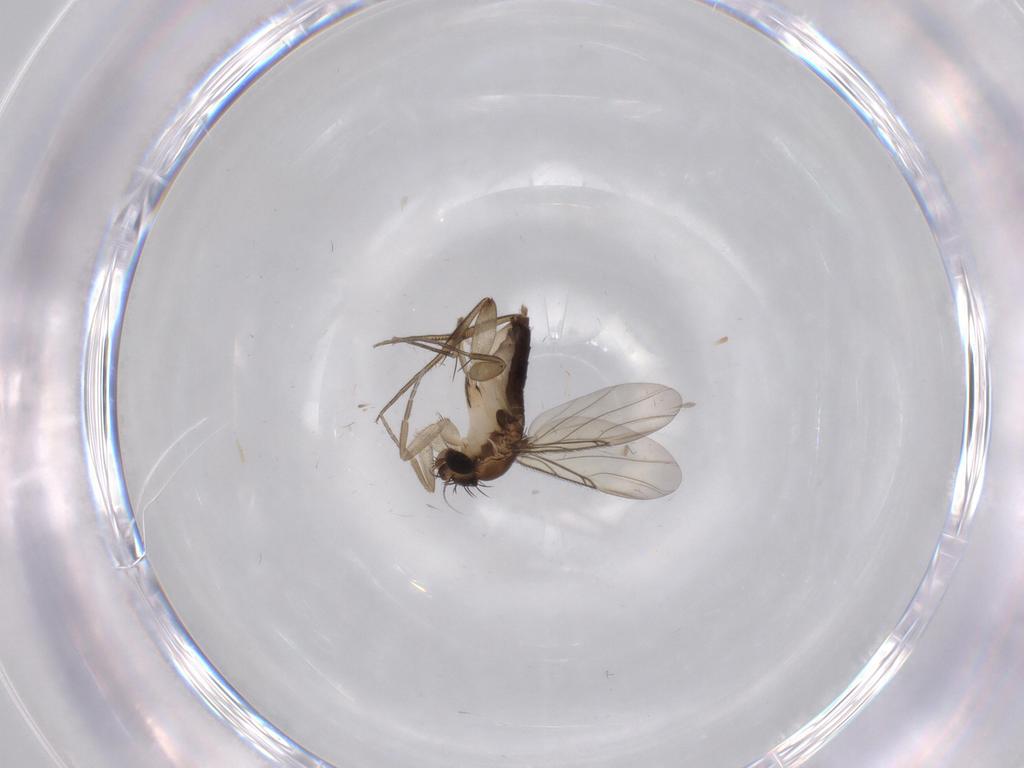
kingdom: Animalia
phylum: Arthropoda
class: Insecta
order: Diptera
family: Phoridae
